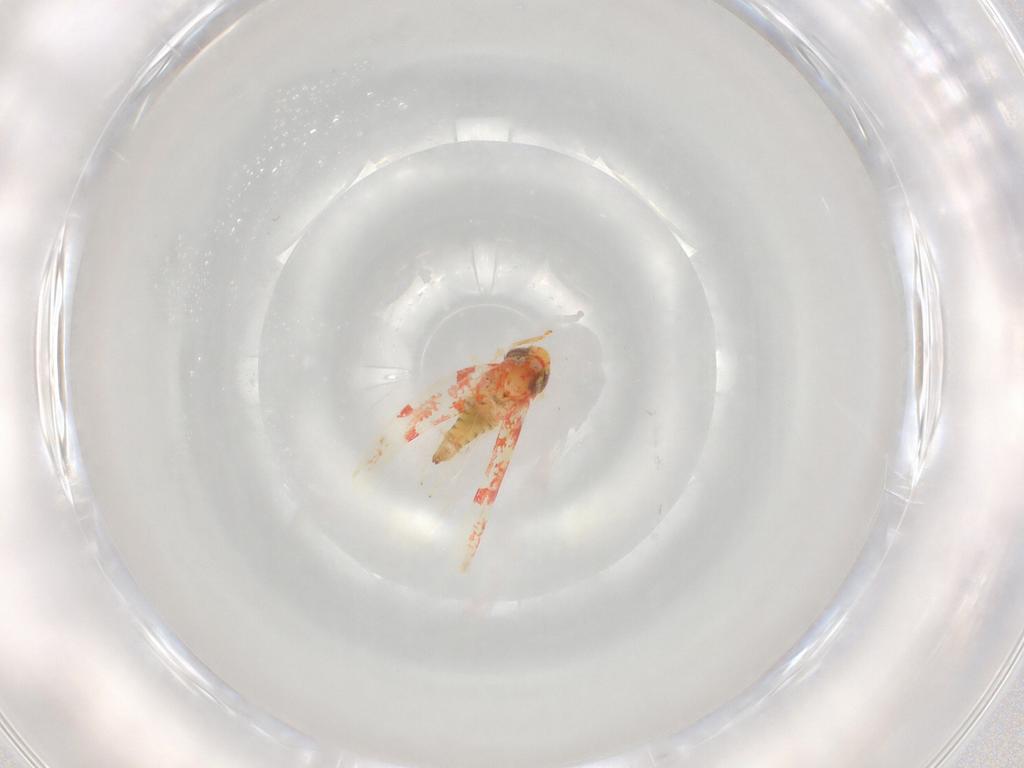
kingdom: Animalia
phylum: Arthropoda
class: Insecta
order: Hemiptera
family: Cicadellidae
